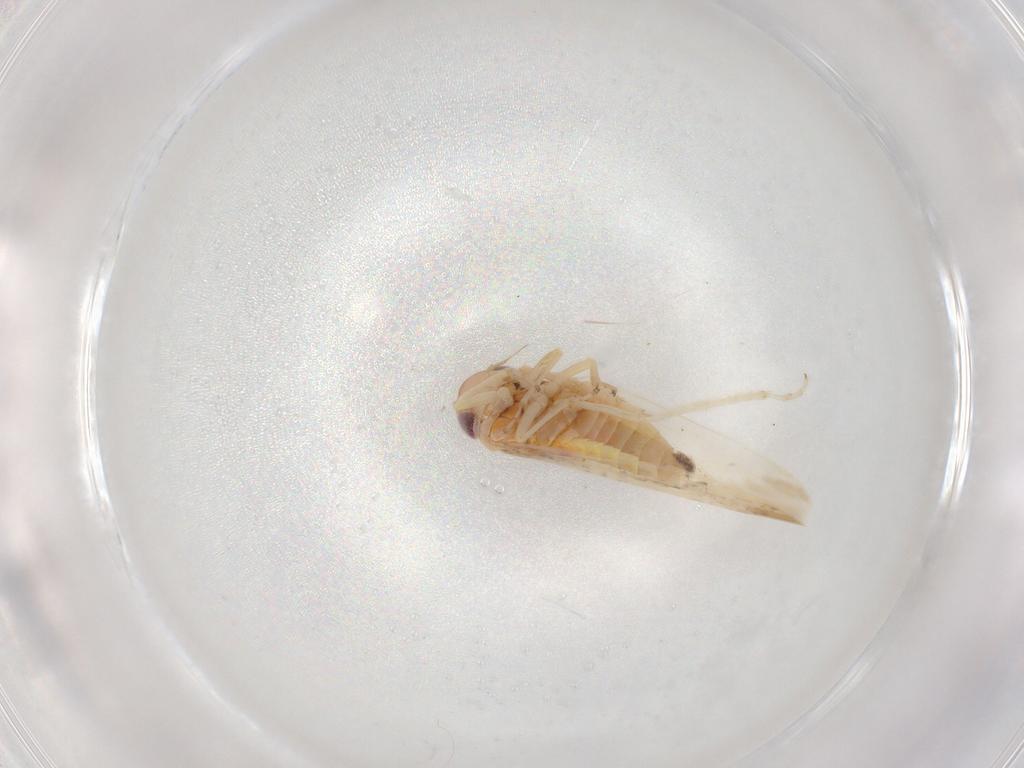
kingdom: Animalia
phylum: Arthropoda
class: Insecta
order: Hemiptera
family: Cicadellidae
